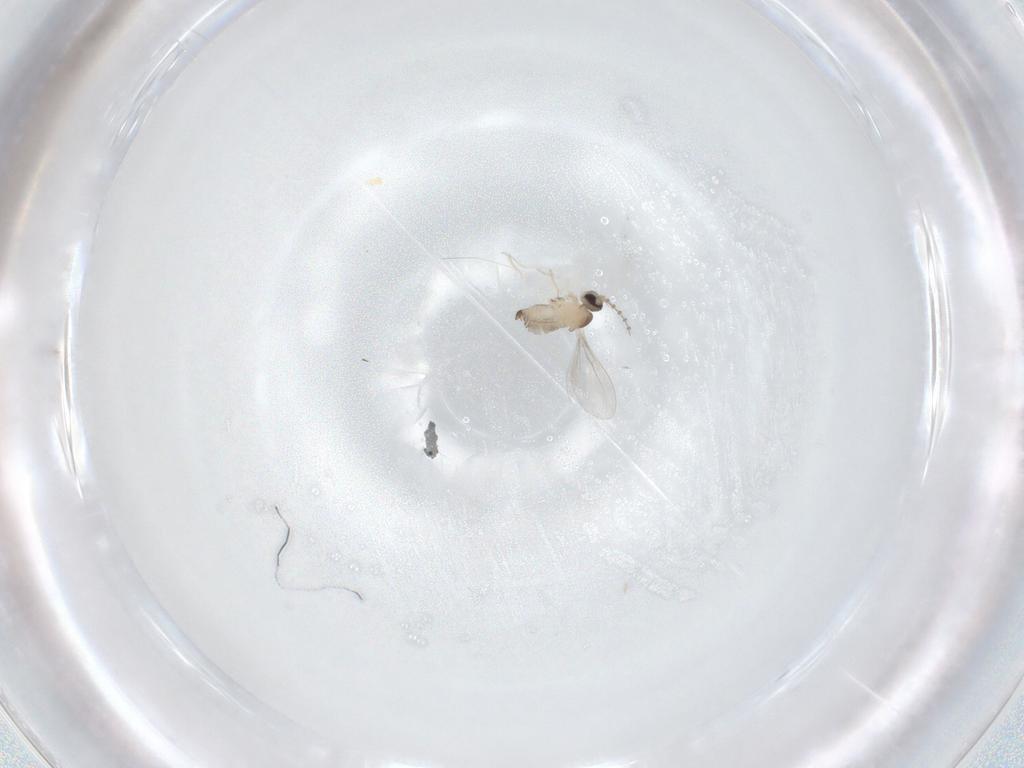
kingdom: Animalia
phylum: Arthropoda
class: Insecta
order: Diptera
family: Cecidomyiidae
